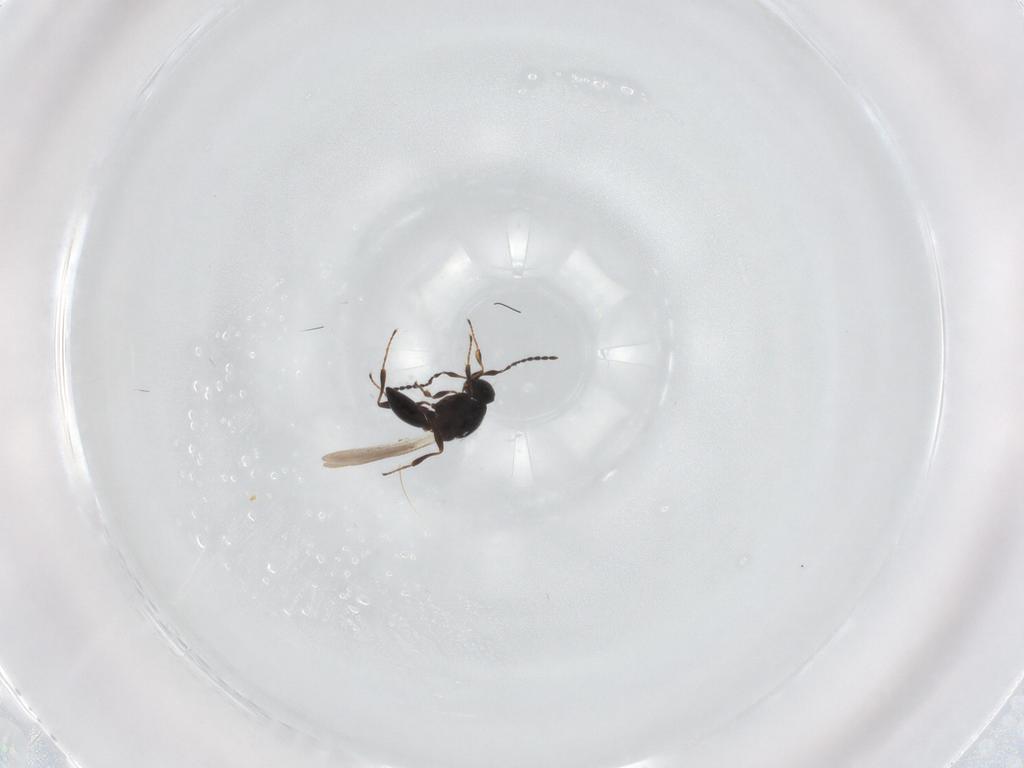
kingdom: Animalia
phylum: Arthropoda
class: Insecta
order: Hymenoptera
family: Platygastridae
